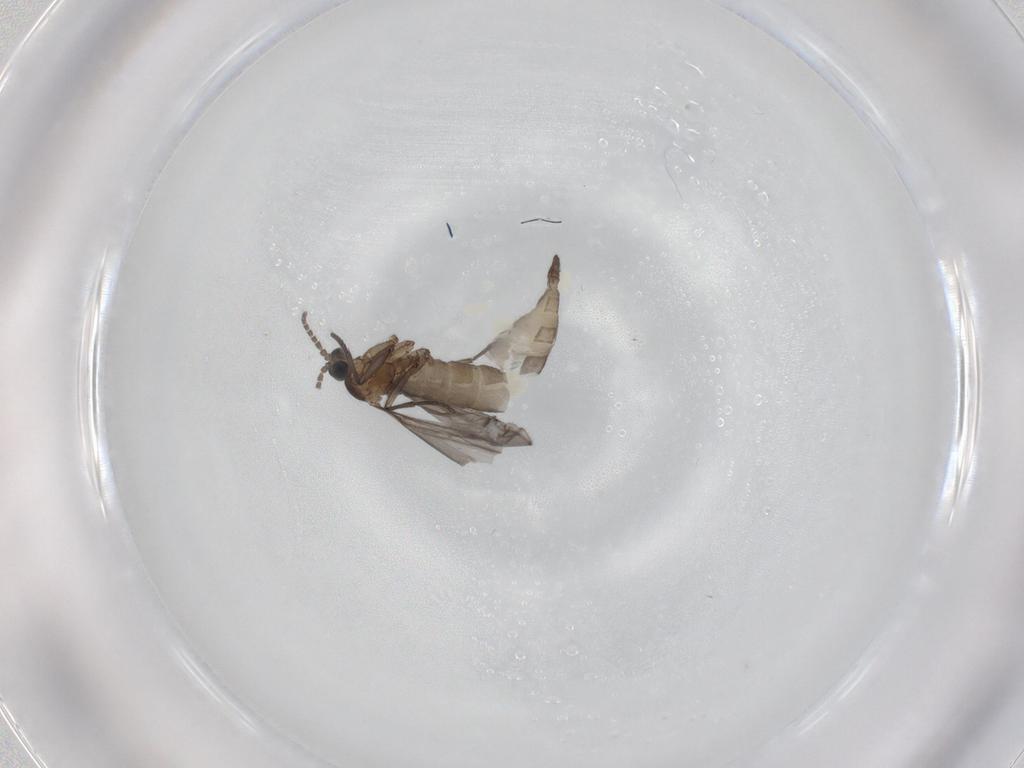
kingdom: Animalia
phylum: Arthropoda
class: Insecta
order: Diptera
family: Sciaridae
